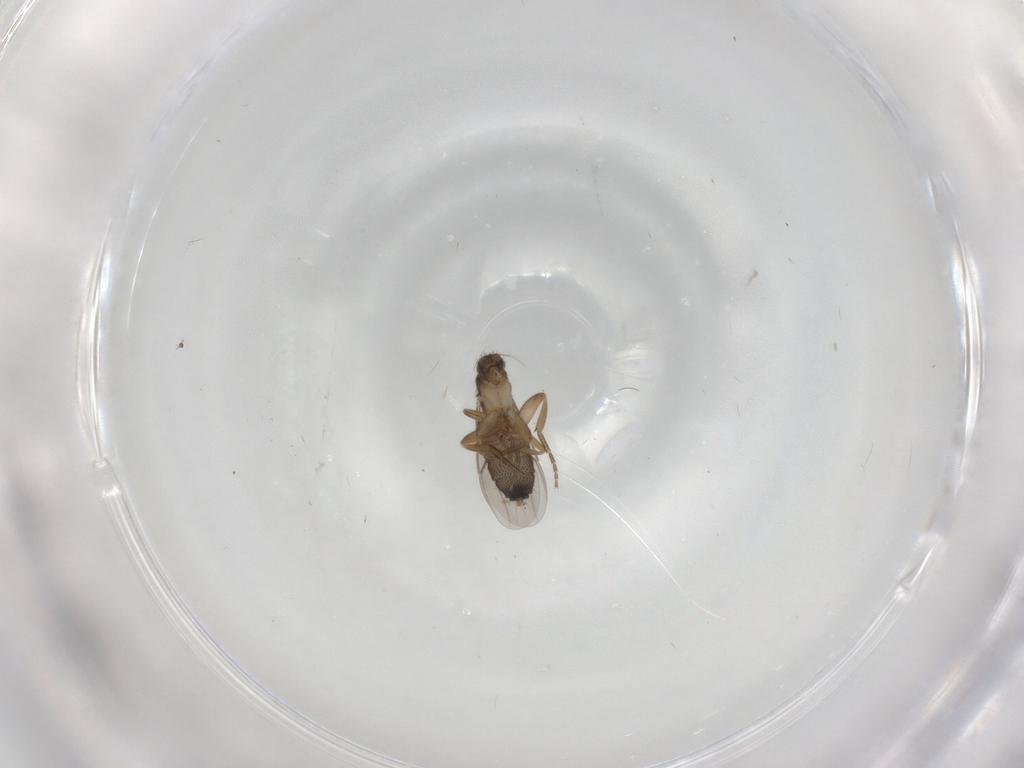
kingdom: Animalia
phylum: Arthropoda
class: Insecta
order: Diptera
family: Phoridae
